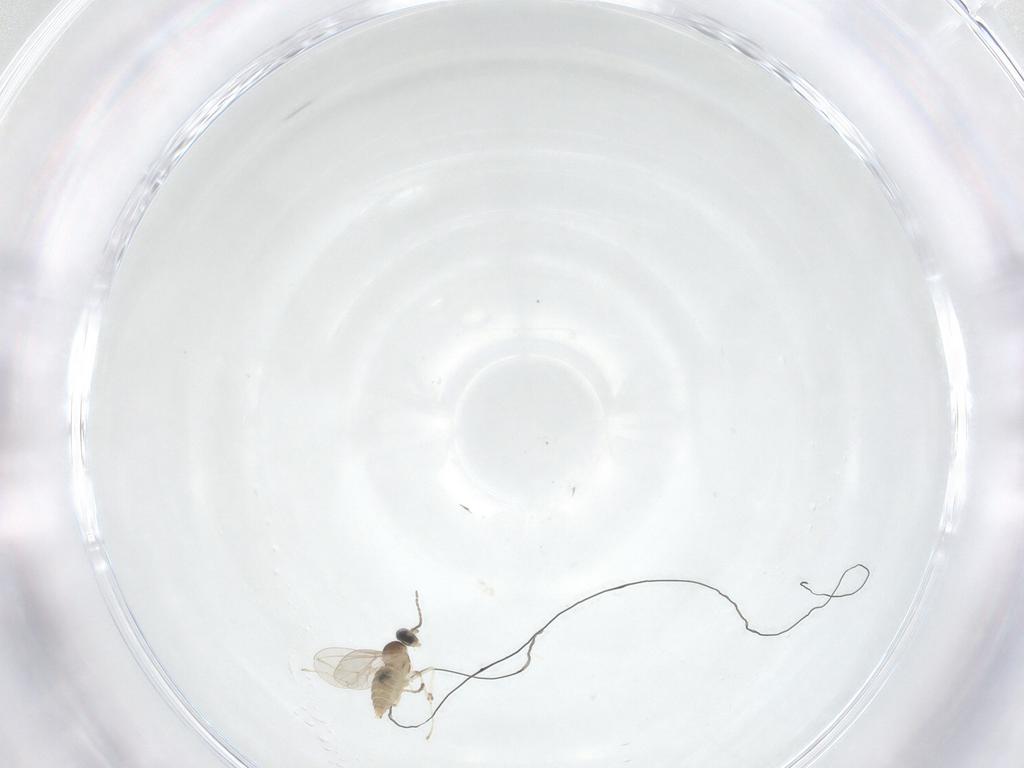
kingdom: Animalia
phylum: Arthropoda
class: Insecta
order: Diptera
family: Cecidomyiidae
